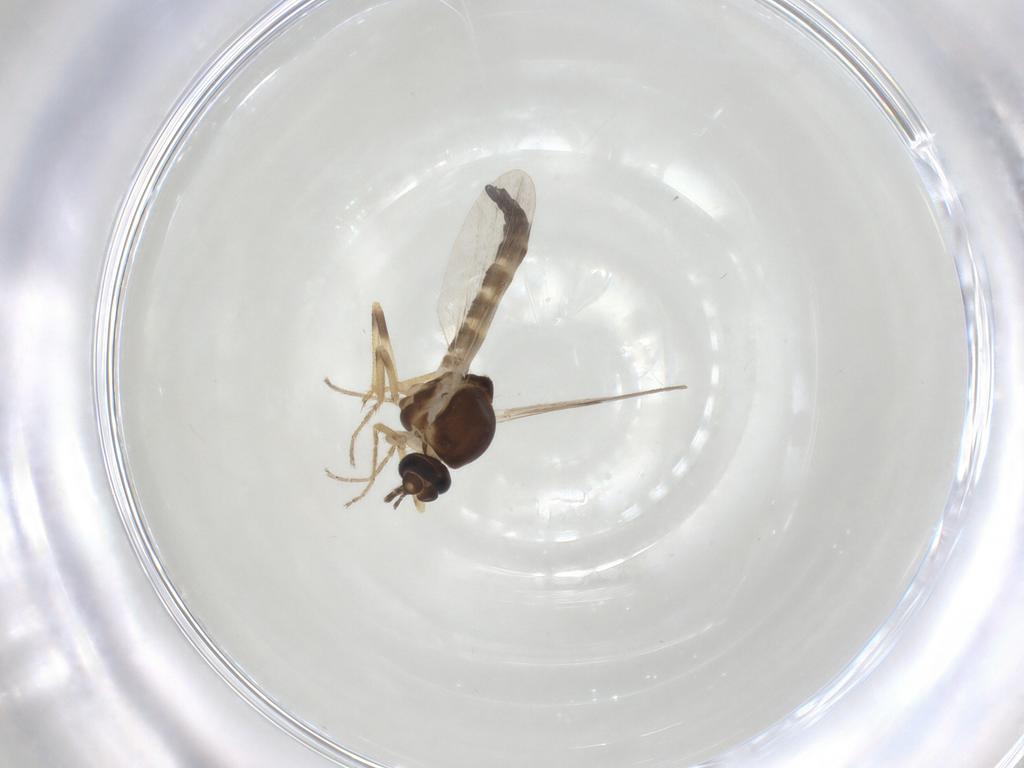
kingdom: Animalia
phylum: Arthropoda
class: Insecta
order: Diptera
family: Ceratopogonidae
